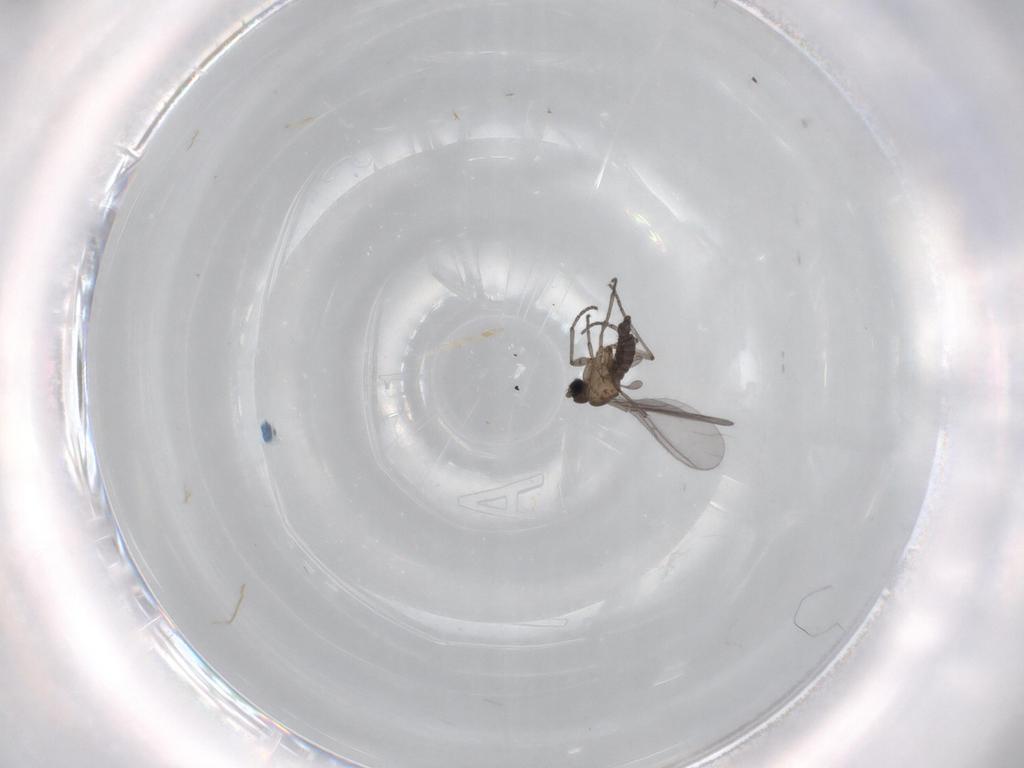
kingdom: Animalia
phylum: Arthropoda
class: Insecta
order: Diptera
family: Sciaridae
